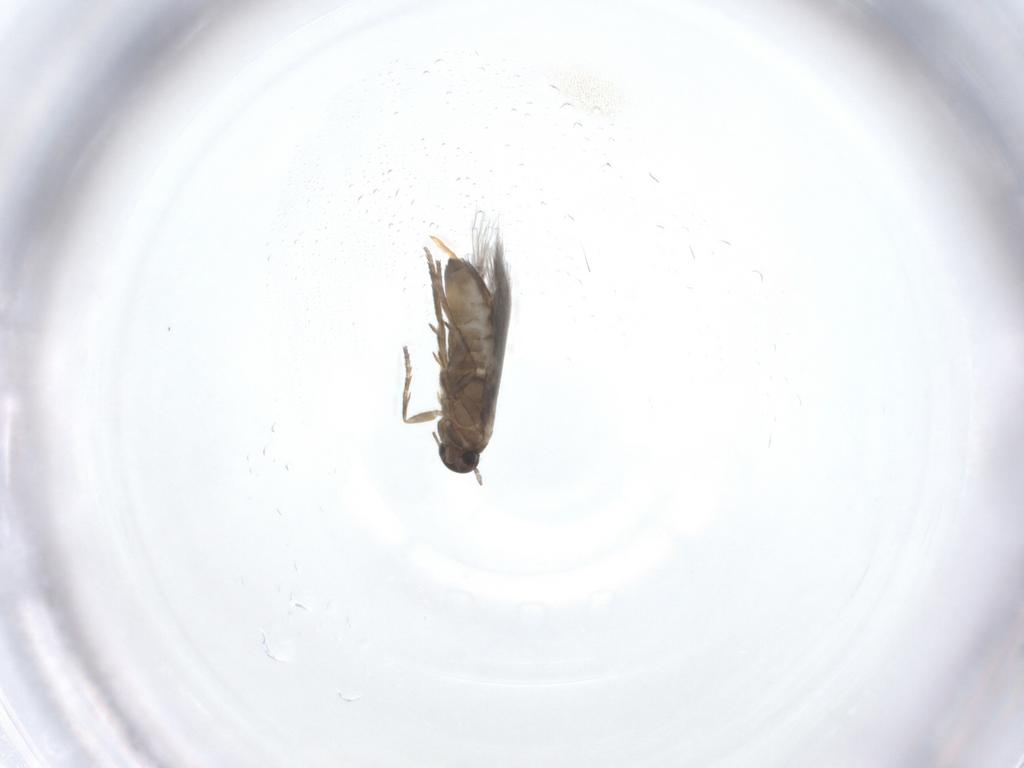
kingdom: Animalia
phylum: Arthropoda
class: Insecta
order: Lepidoptera
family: Heliozelidae
